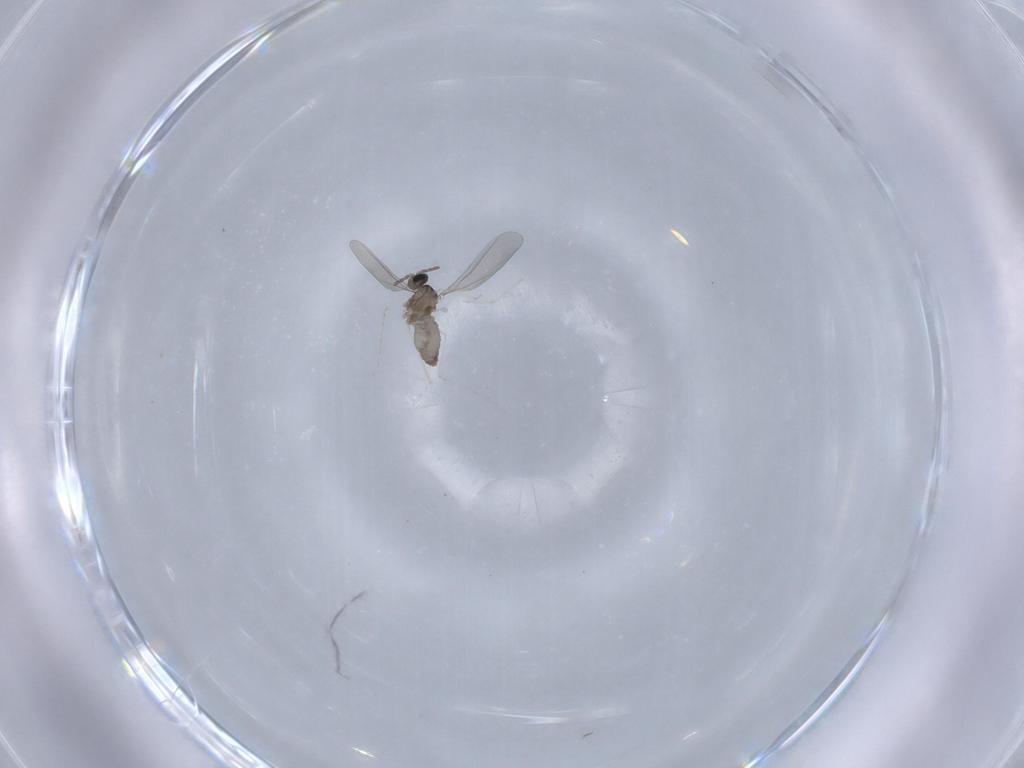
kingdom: Animalia
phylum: Arthropoda
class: Insecta
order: Diptera
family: Cecidomyiidae
